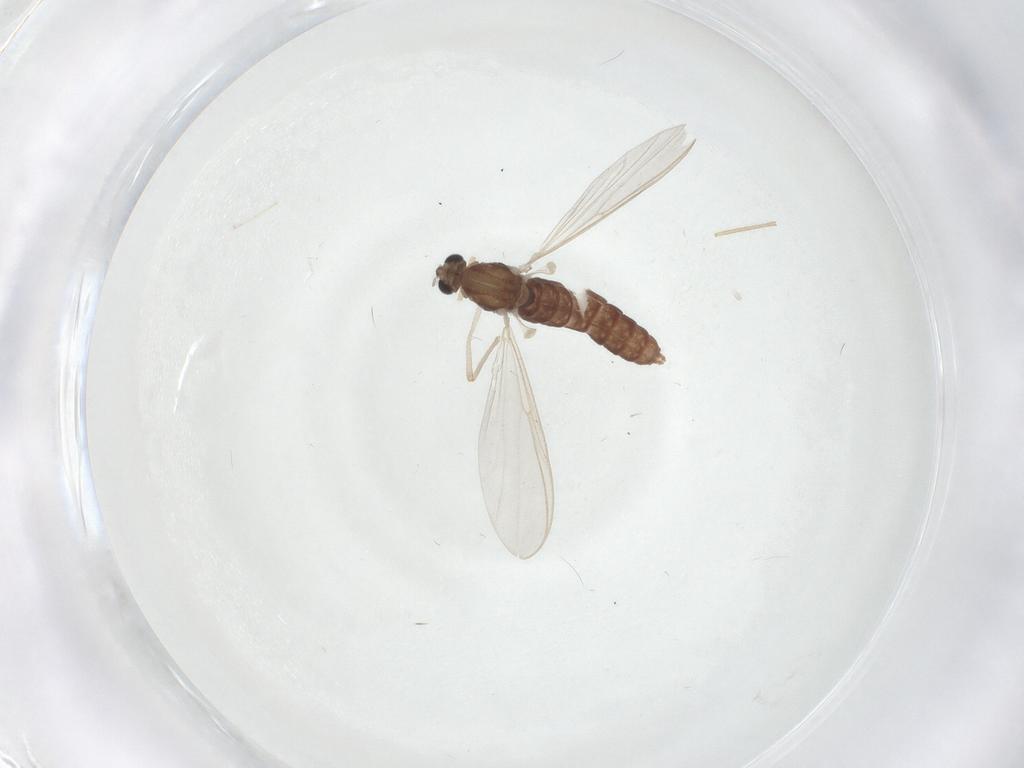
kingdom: Animalia
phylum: Arthropoda
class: Insecta
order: Diptera
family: Chironomidae
